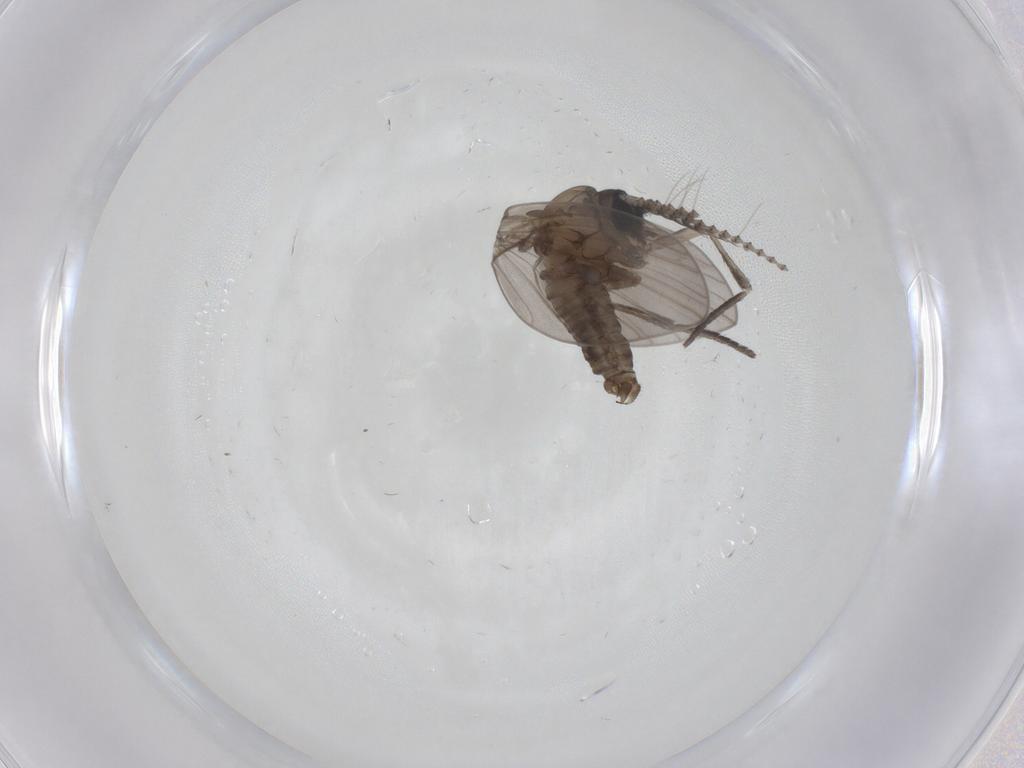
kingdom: Animalia
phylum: Arthropoda
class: Insecta
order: Diptera
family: Psychodidae
